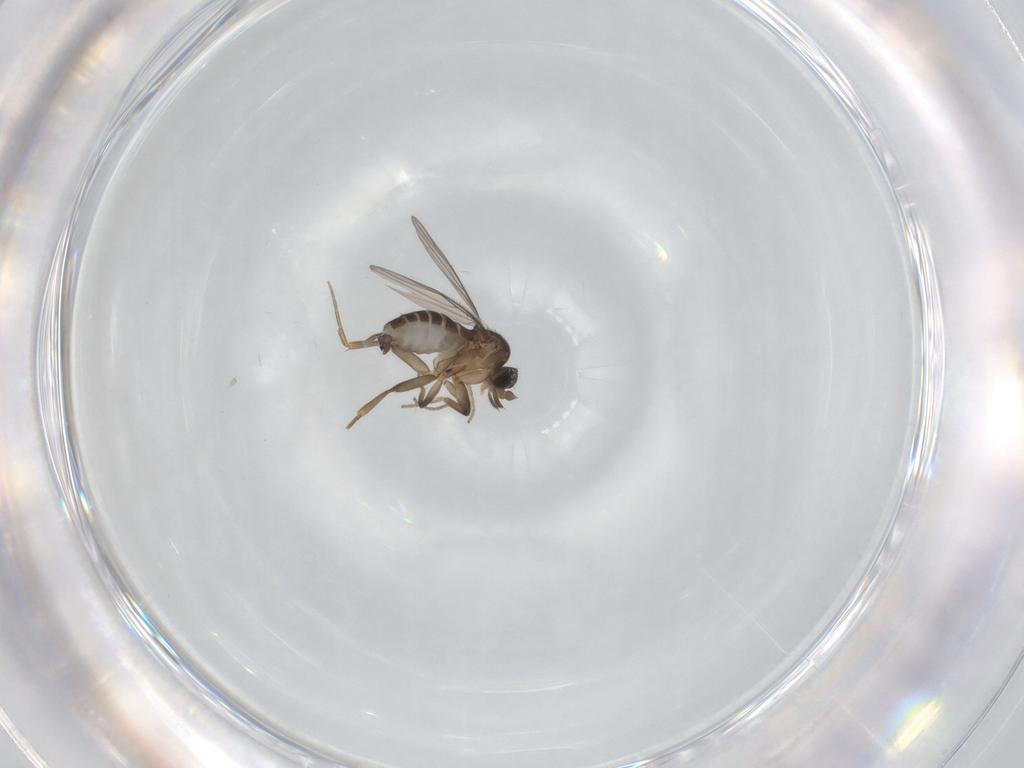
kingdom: Animalia
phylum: Arthropoda
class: Insecta
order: Diptera
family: Phoridae
